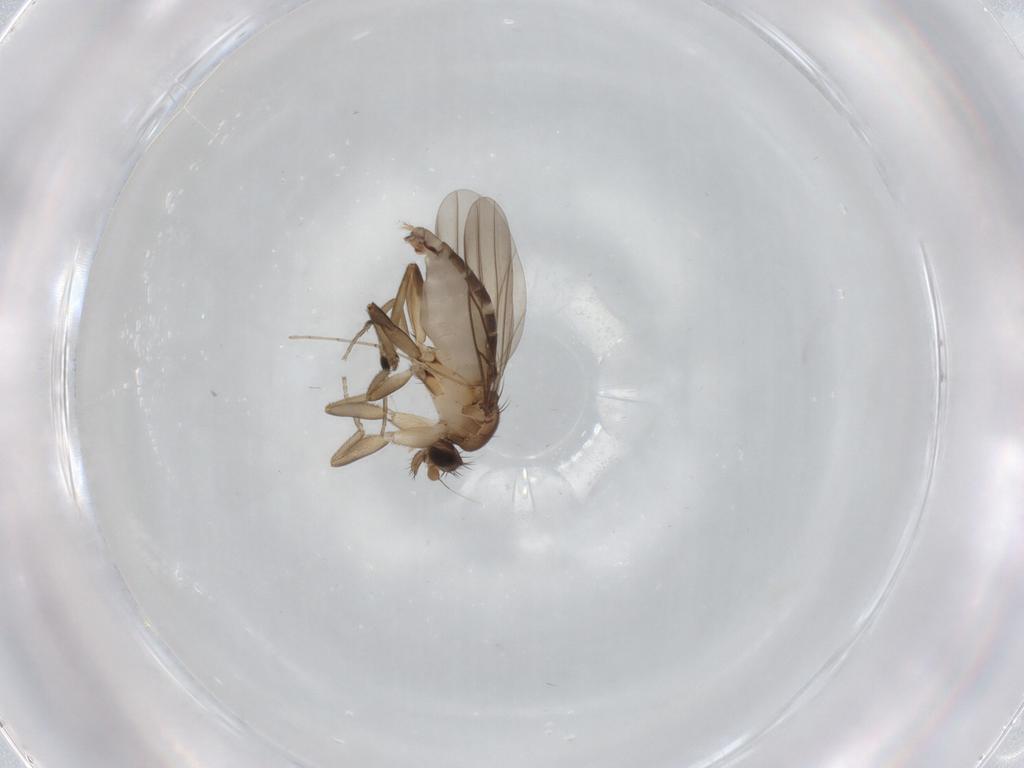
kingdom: Animalia
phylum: Arthropoda
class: Insecta
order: Diptera
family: Phoridae
